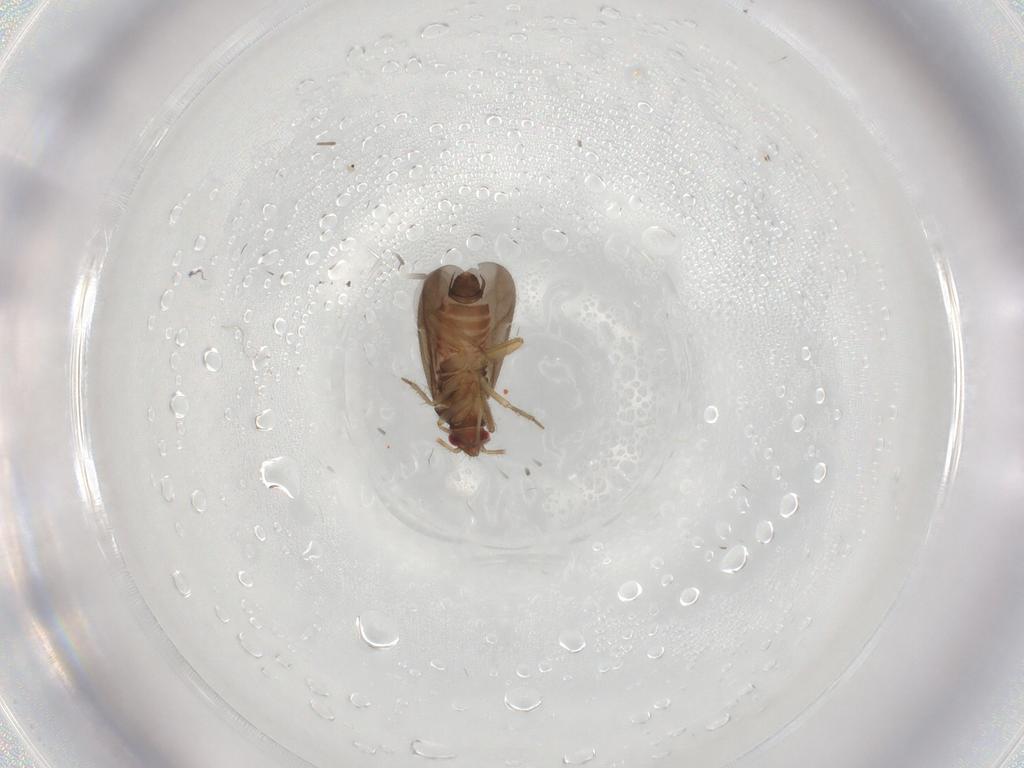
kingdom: Animalia
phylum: Arthropoda
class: Insecta
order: Hemiptera
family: Ceratocombidae
